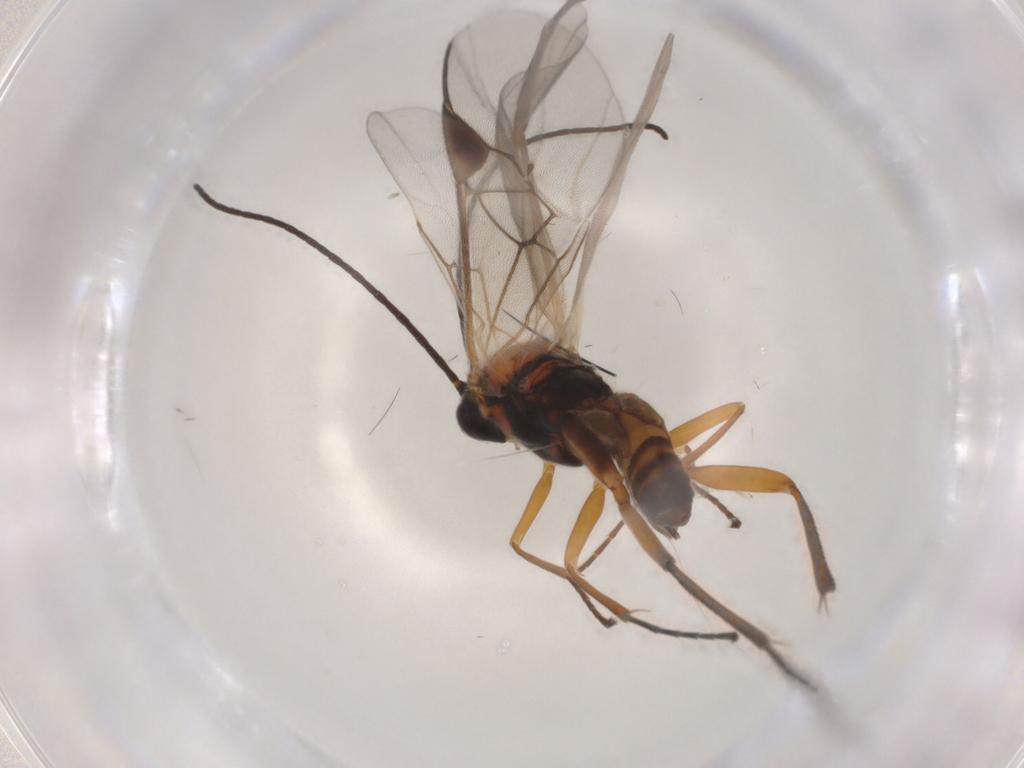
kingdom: Animalia
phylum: Arthropoda
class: Insecta
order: Hymenoptera
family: Braconidae
